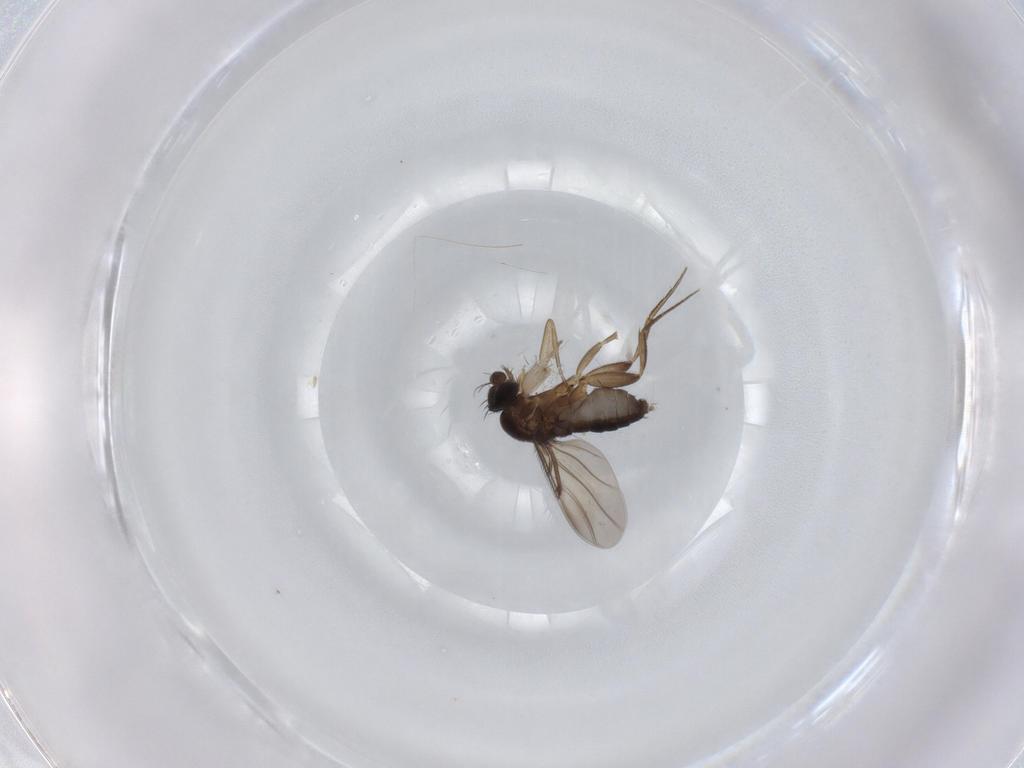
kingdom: Animalia
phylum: Arthropoda
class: Insecta
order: Diptera
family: Phoridae
